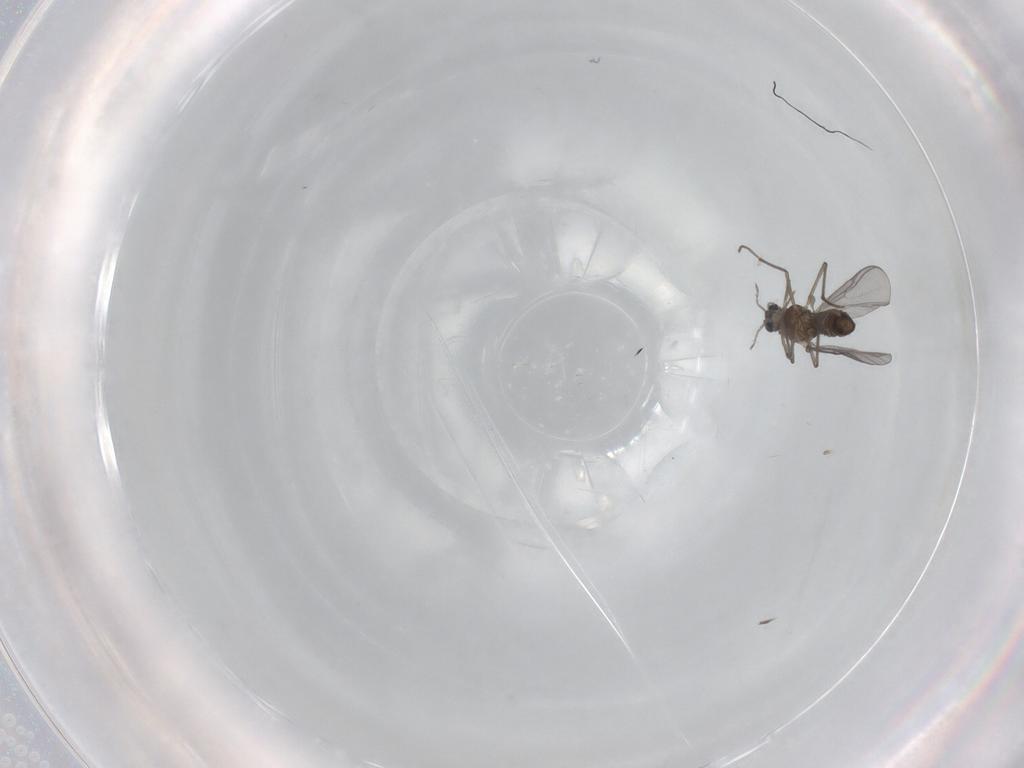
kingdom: Animalia
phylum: Arthropoda
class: Insecta
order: Diptera
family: Chironomidae
